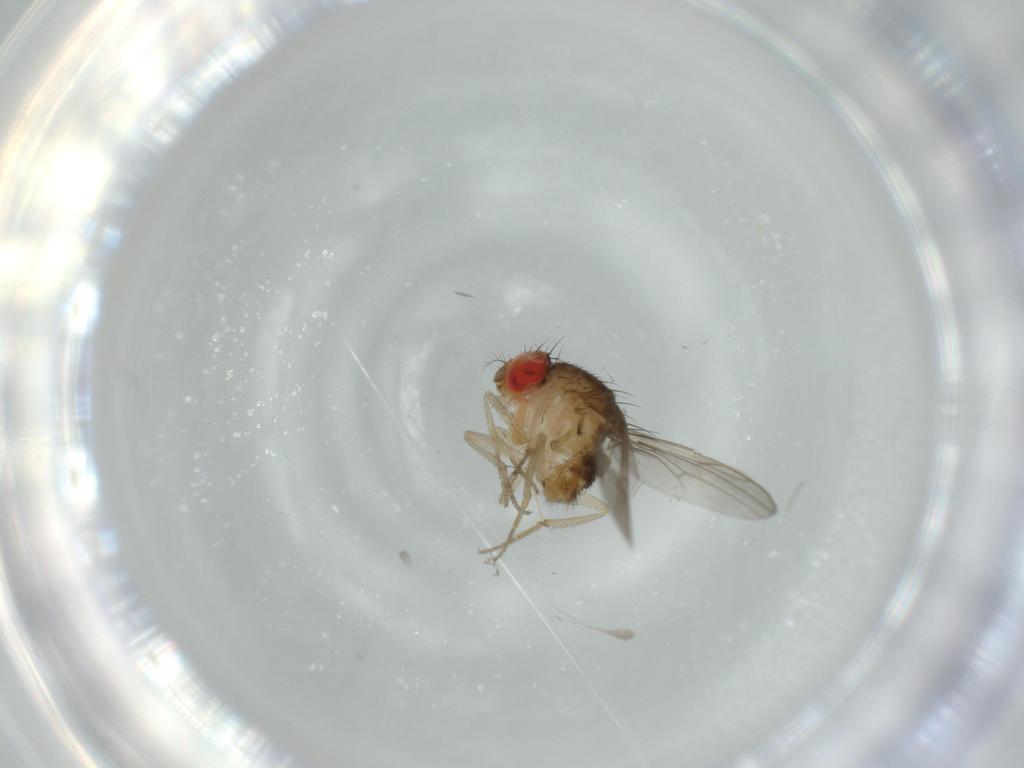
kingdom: Animalia
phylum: Arthropoda
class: Insecta
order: Diptera
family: Drosophilidae
